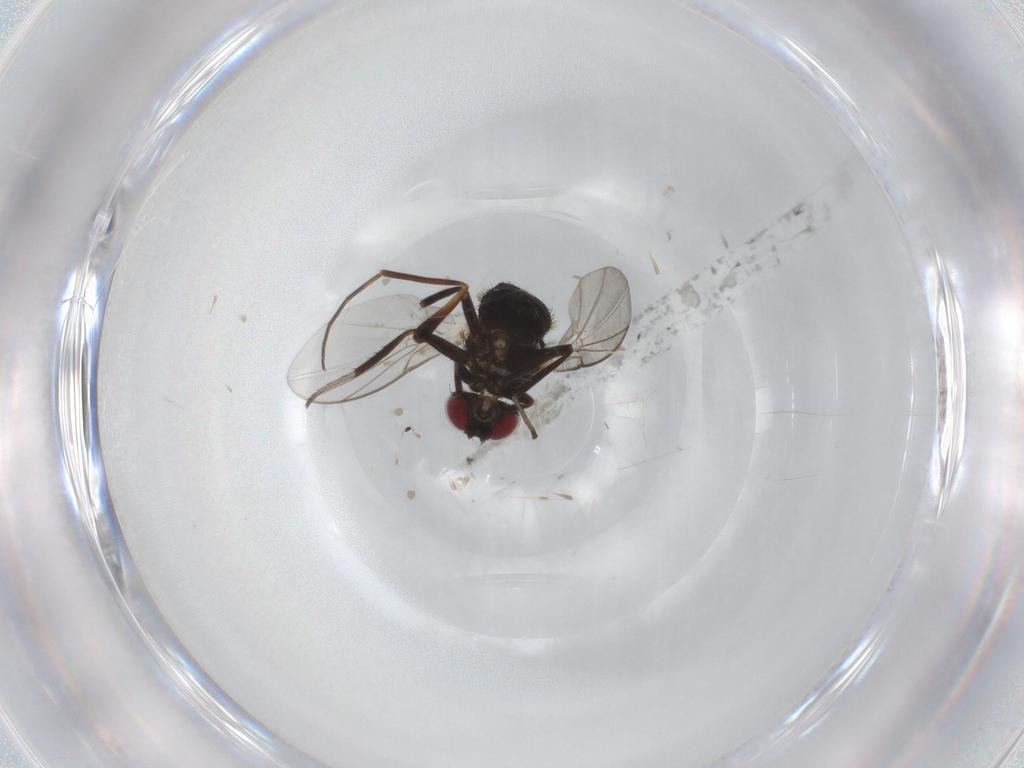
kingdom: Animalia
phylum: Arthropoda
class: Insecta
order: Diptera
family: Dolichopodidae
